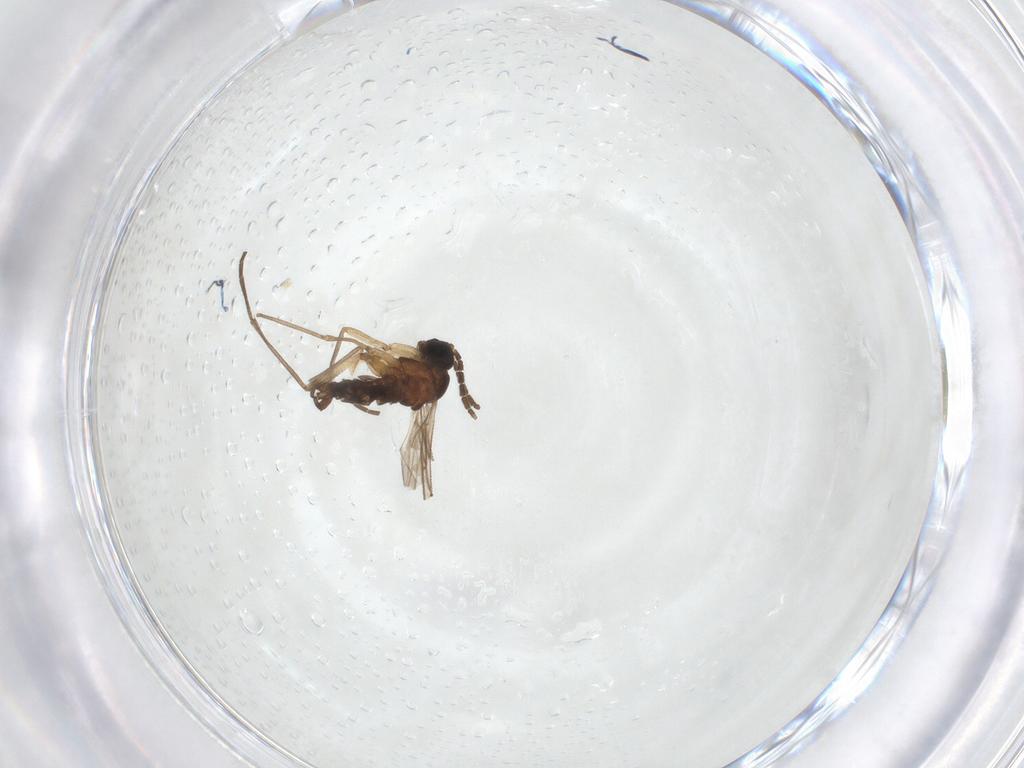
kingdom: Animalia
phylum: Arthropoda
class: Insecta
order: Diptera
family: Sciaridae
